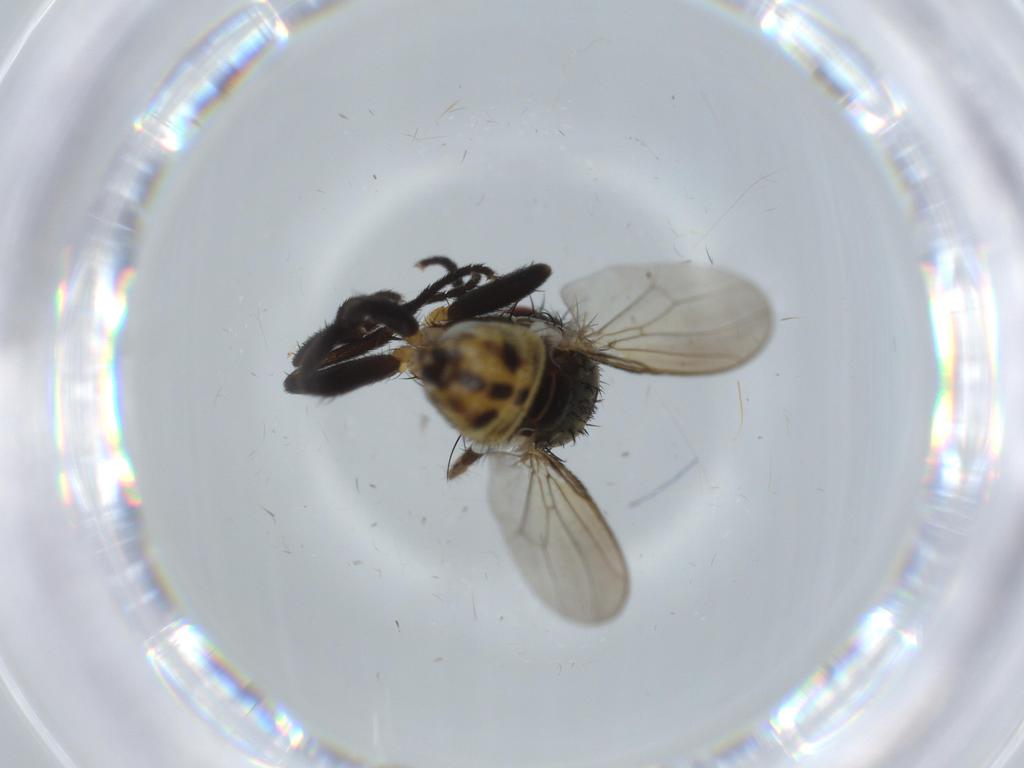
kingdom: Animalia
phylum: Arthropoda
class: Insecta
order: Diptera
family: Anthomyiidae
